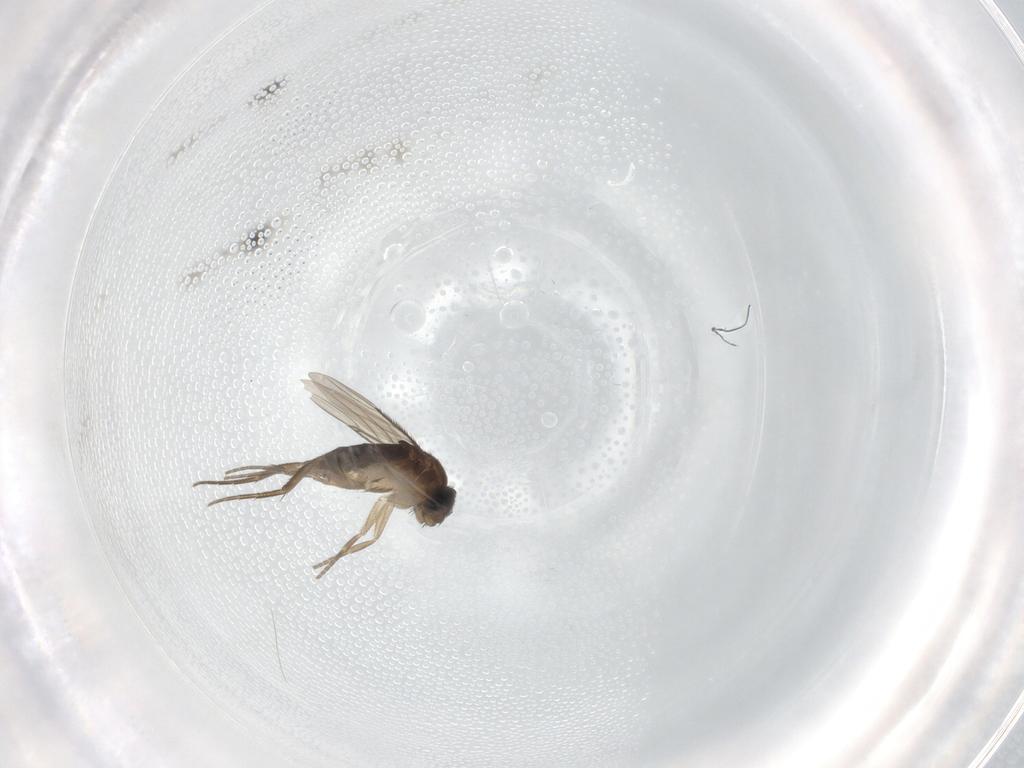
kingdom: Animalia
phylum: Arthropoda
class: Insecta
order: Diptera
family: Phoridae
